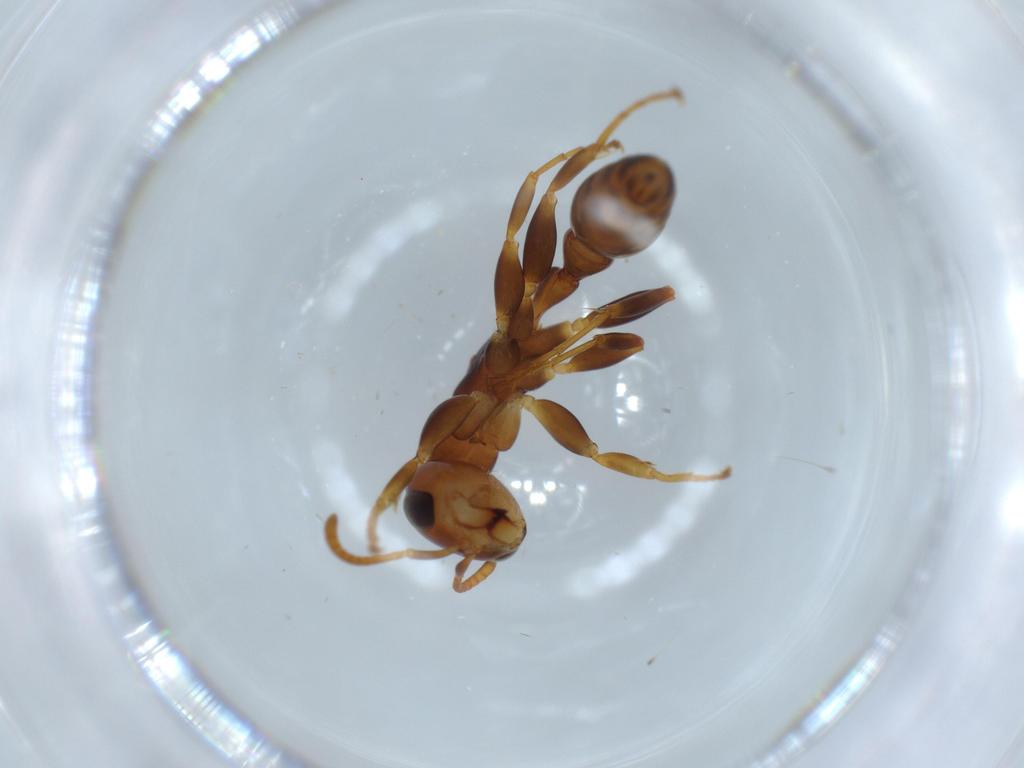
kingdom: Animalia
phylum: Arthropoda
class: Insecta
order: Hymenoptera
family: Formicidae
